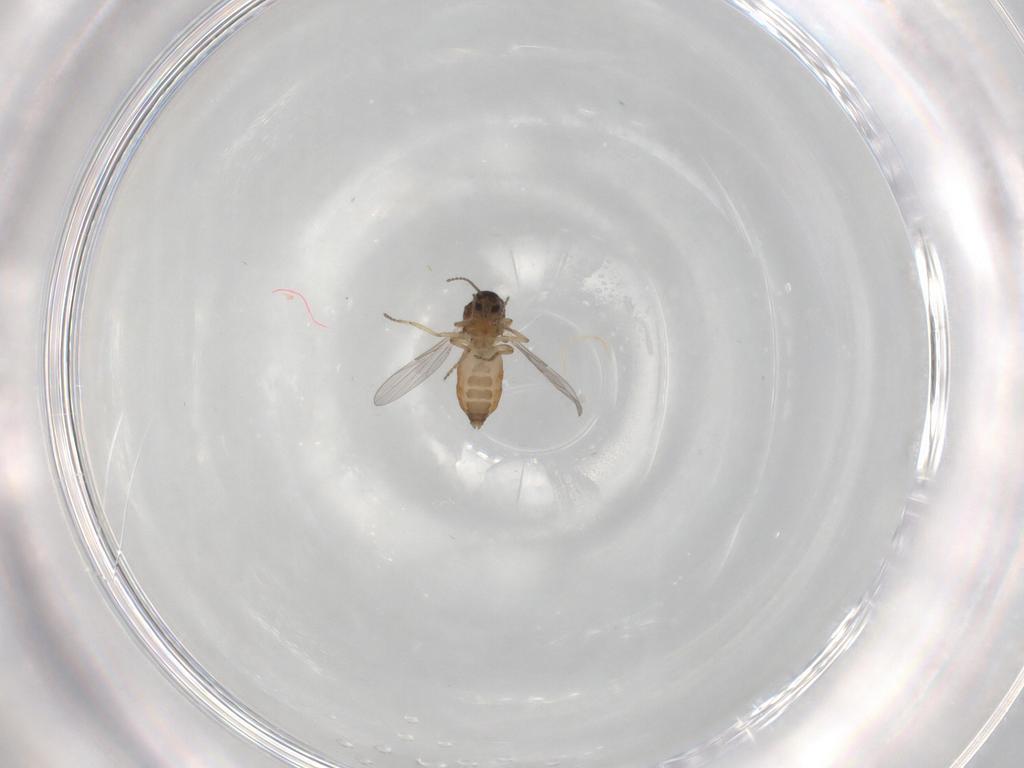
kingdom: Animalia
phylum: Arthropoda
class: Insecta
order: Diptera
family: Ceratopogonidae
